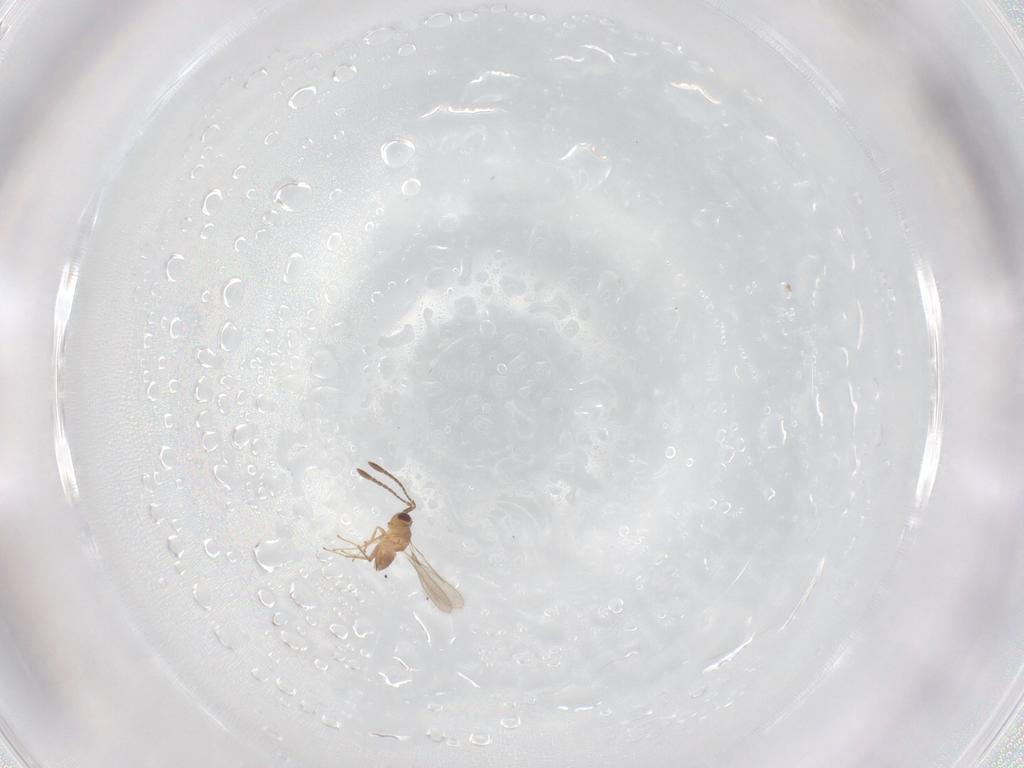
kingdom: Animalia
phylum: Arthropoda
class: Insecta
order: Hymenoptera
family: Mymaridae
